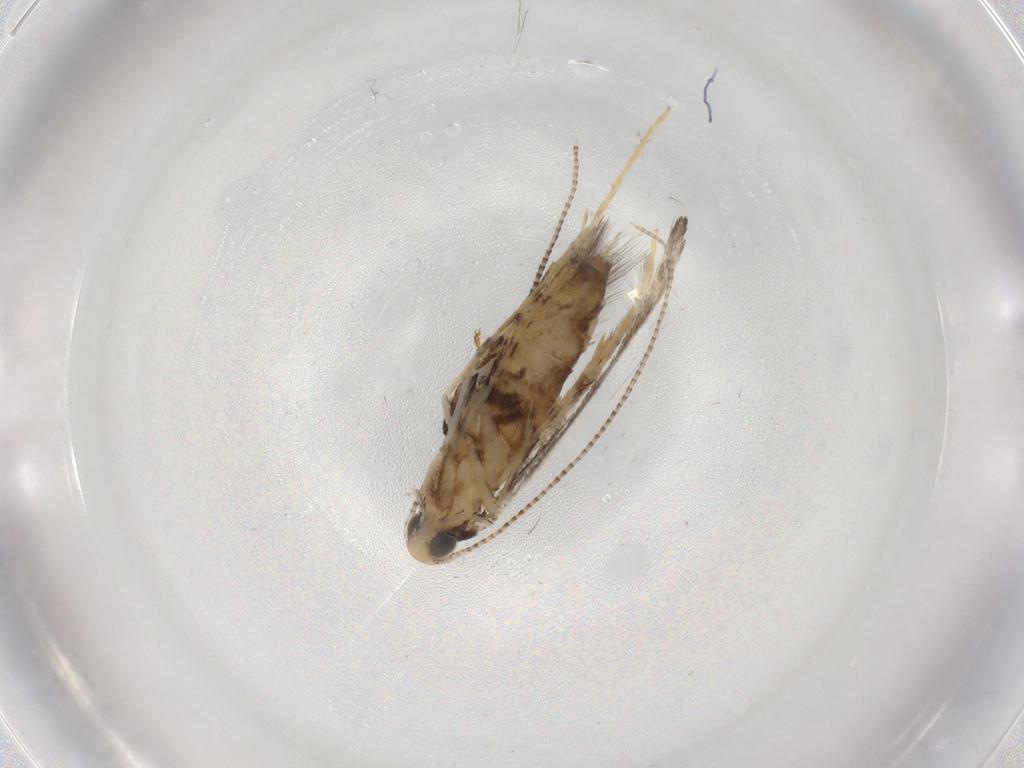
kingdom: Animalia
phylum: Arthropoda
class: Insecta
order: Lepidoptera
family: Gracillariidae
